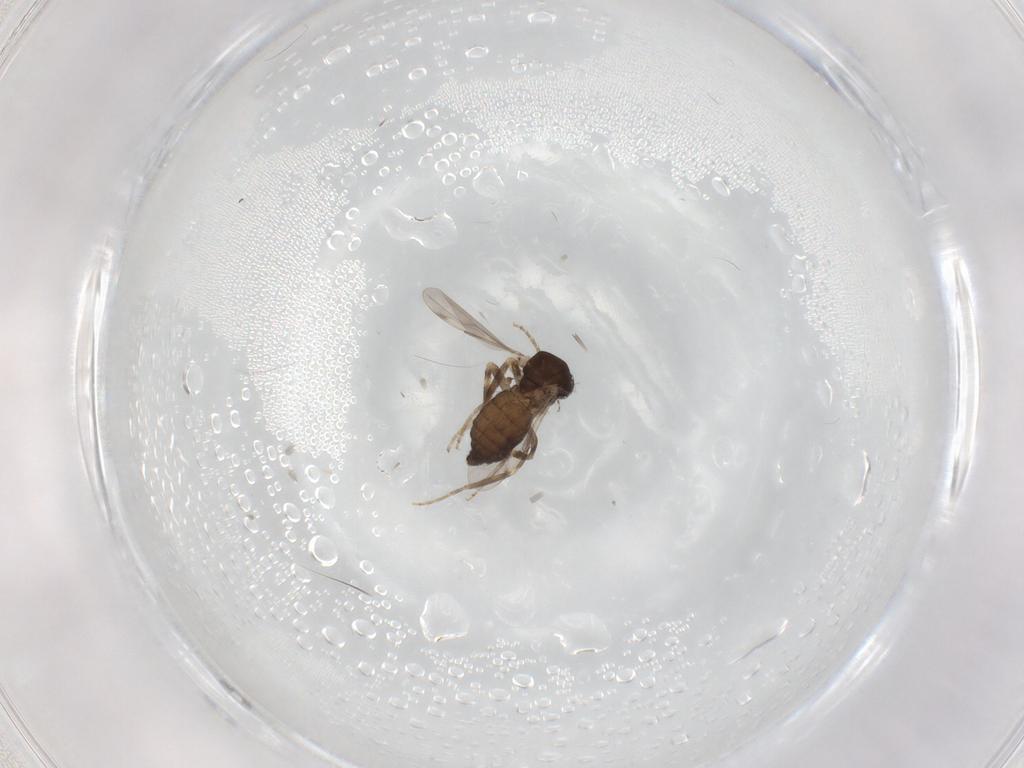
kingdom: Animalia
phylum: Arthropoda
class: Insecta
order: Diptera
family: Ceratopogonidae
